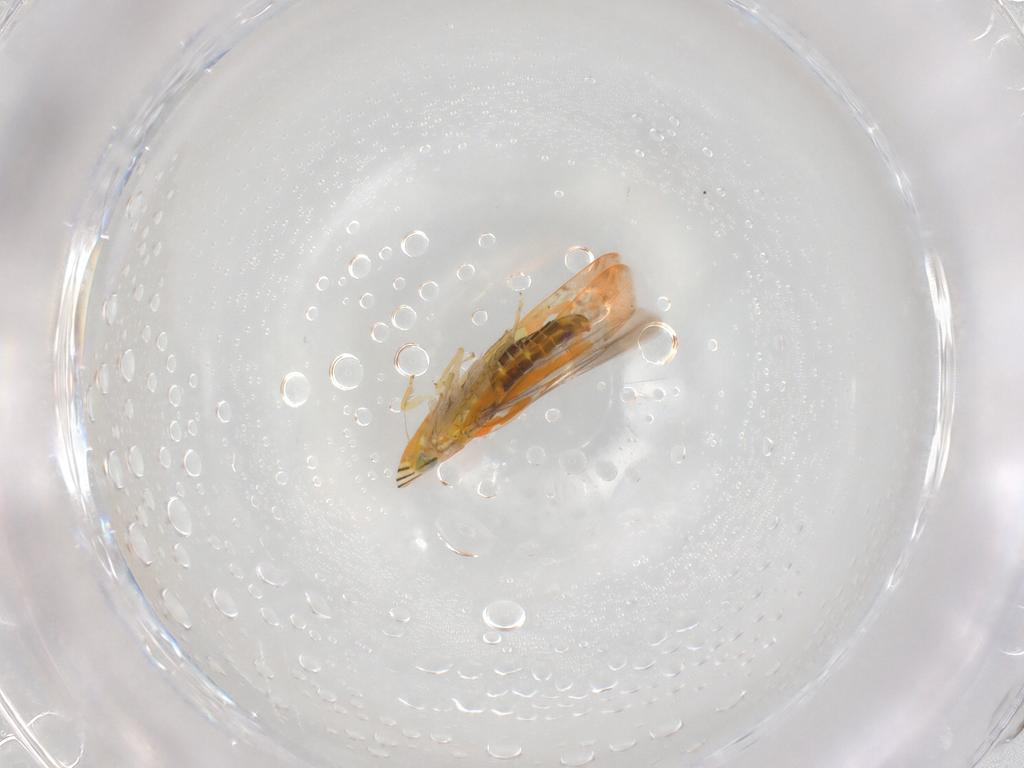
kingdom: Animalia
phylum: Arthropoda
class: Insecta
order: Hemiptera
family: Cicadellidae
